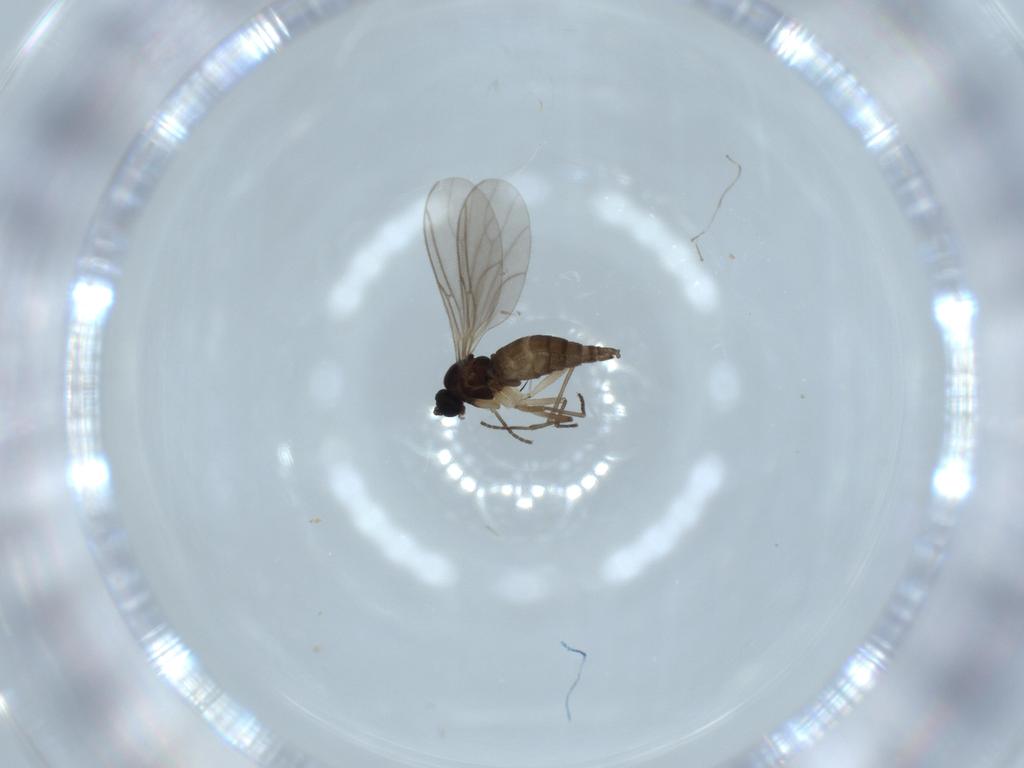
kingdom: Animalia
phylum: Arthropoda
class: Insecta
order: Diptera
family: Sciaridae
